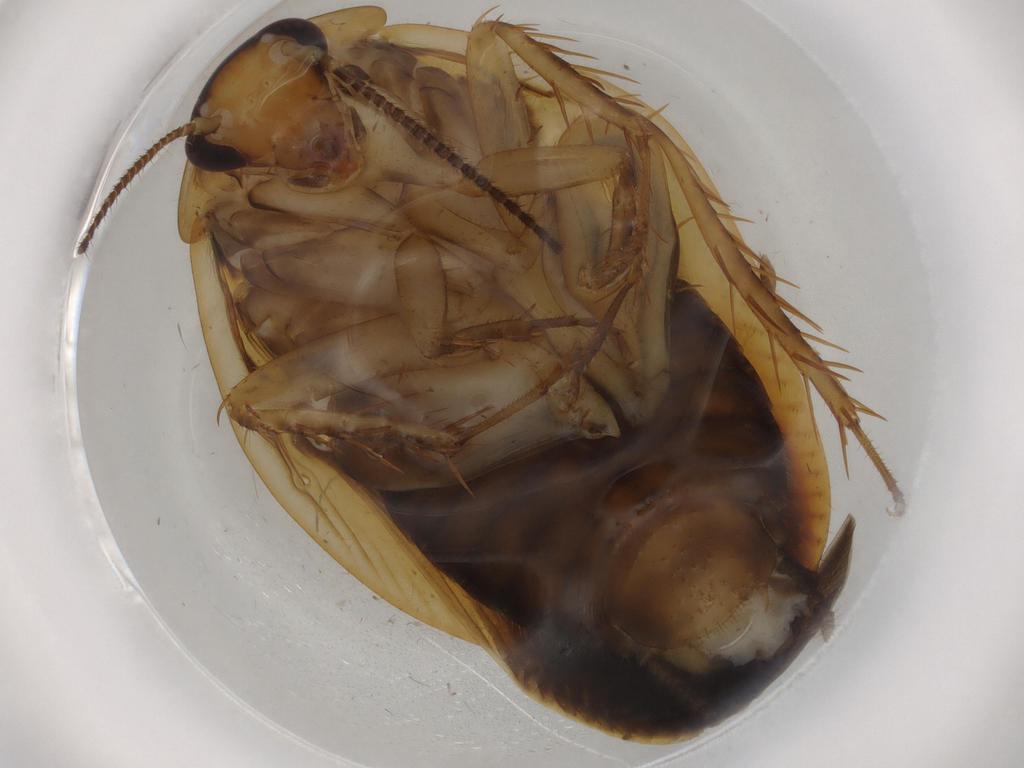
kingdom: Animalia
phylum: Arthropoda
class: Insecta
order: Blattodea
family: Ectobiidae
